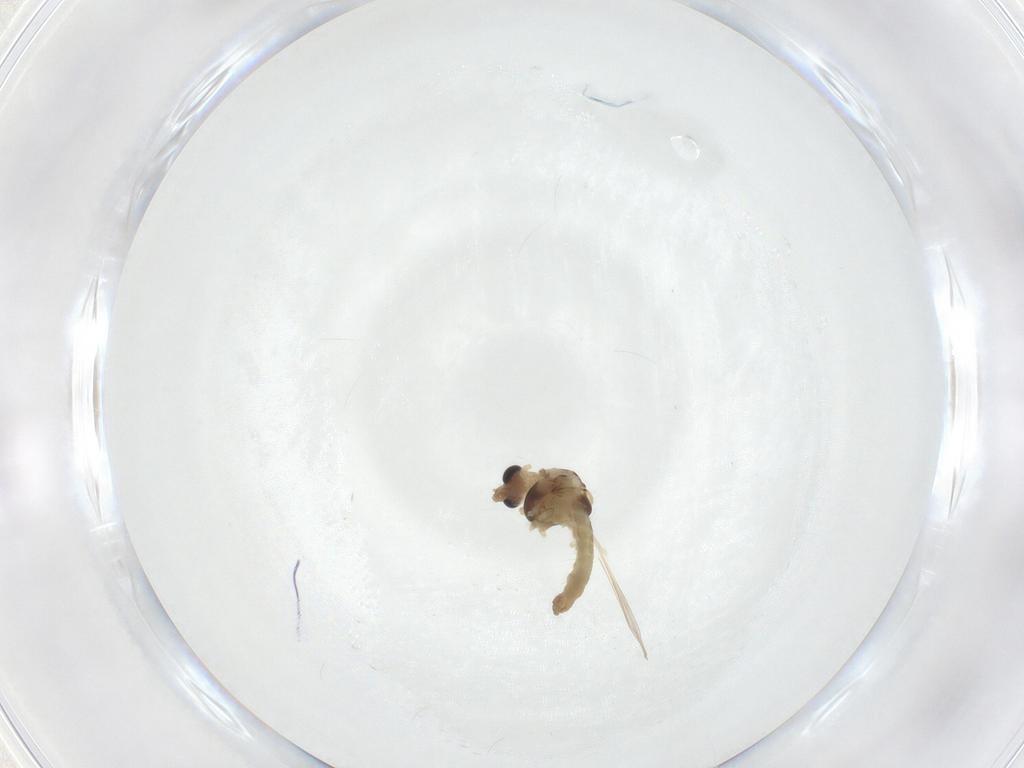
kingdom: Animalia
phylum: Arthropoda
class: Insecta
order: Diptera
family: Chironomidae
